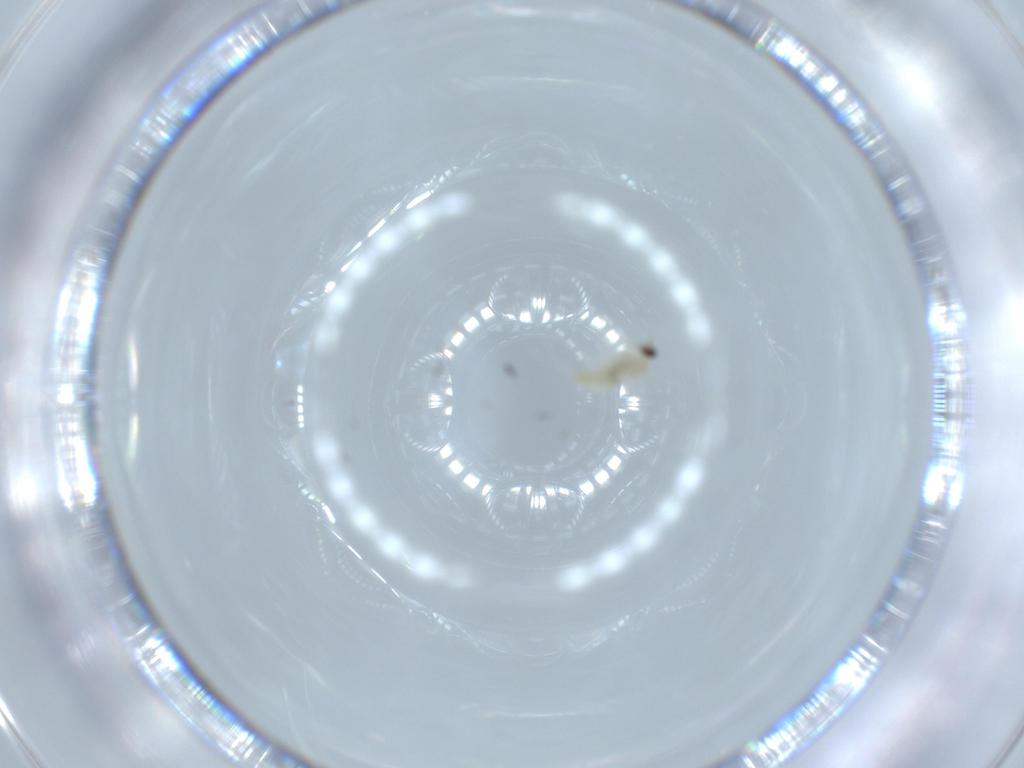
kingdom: Animalia
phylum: Arthropoda
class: Insecta
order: Diptera
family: Cecidomyiidae
